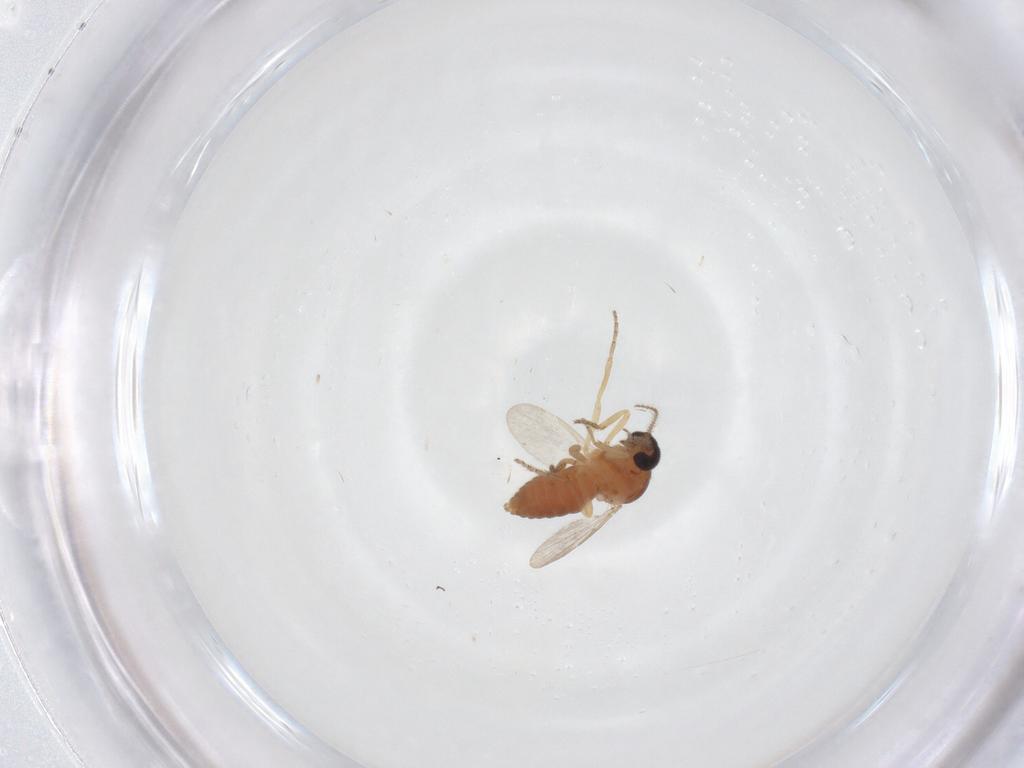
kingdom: Animalia
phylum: Arthropoda
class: Insecta
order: Diptera
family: Ceratopogonidae
